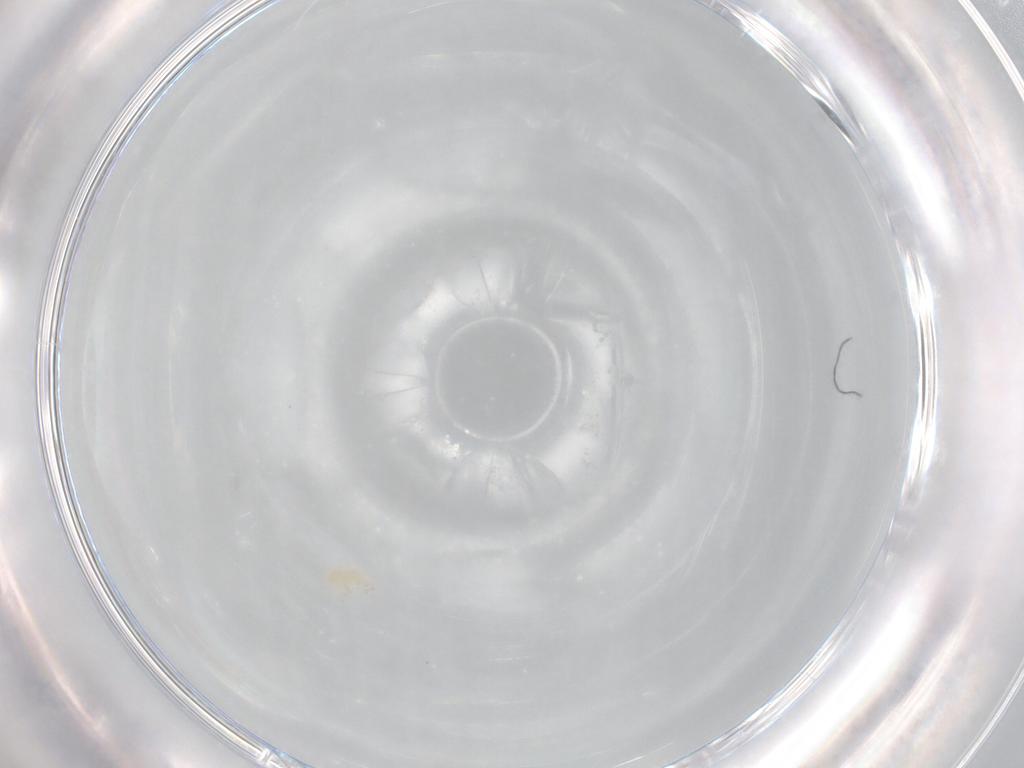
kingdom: Animalia
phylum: Arthropoda
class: Arachnida
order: Trombidiformes
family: Stigmaeidae
